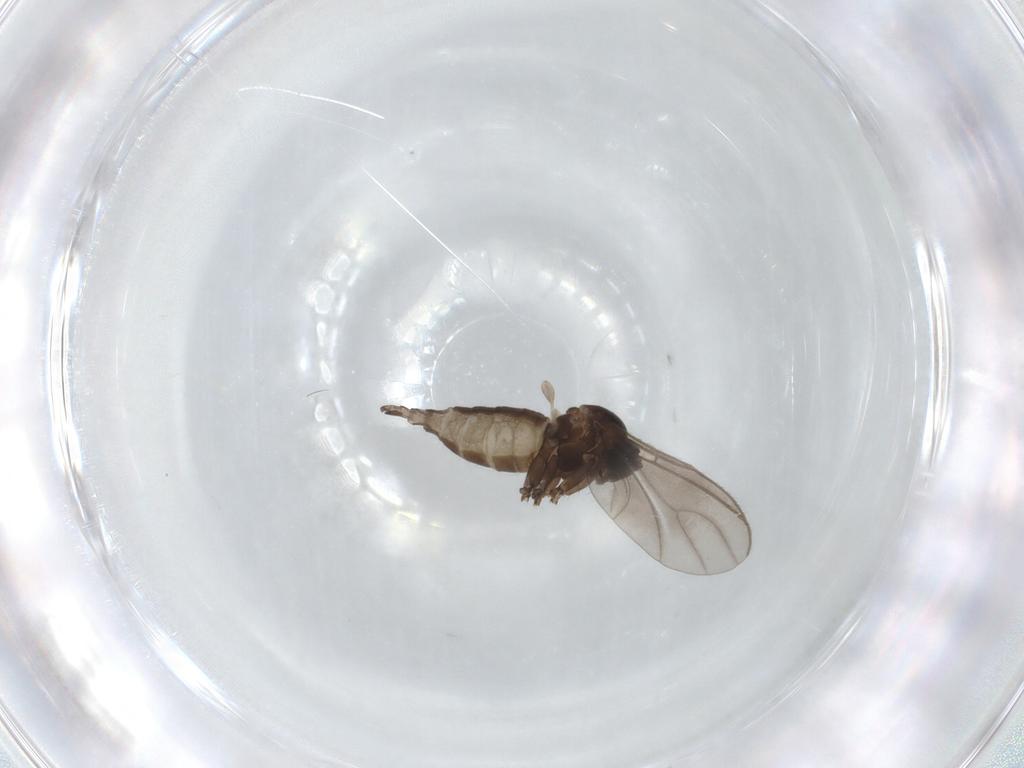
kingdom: Animalia
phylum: Arthropoda
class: Insecta
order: Diptera
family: Sciaridae
